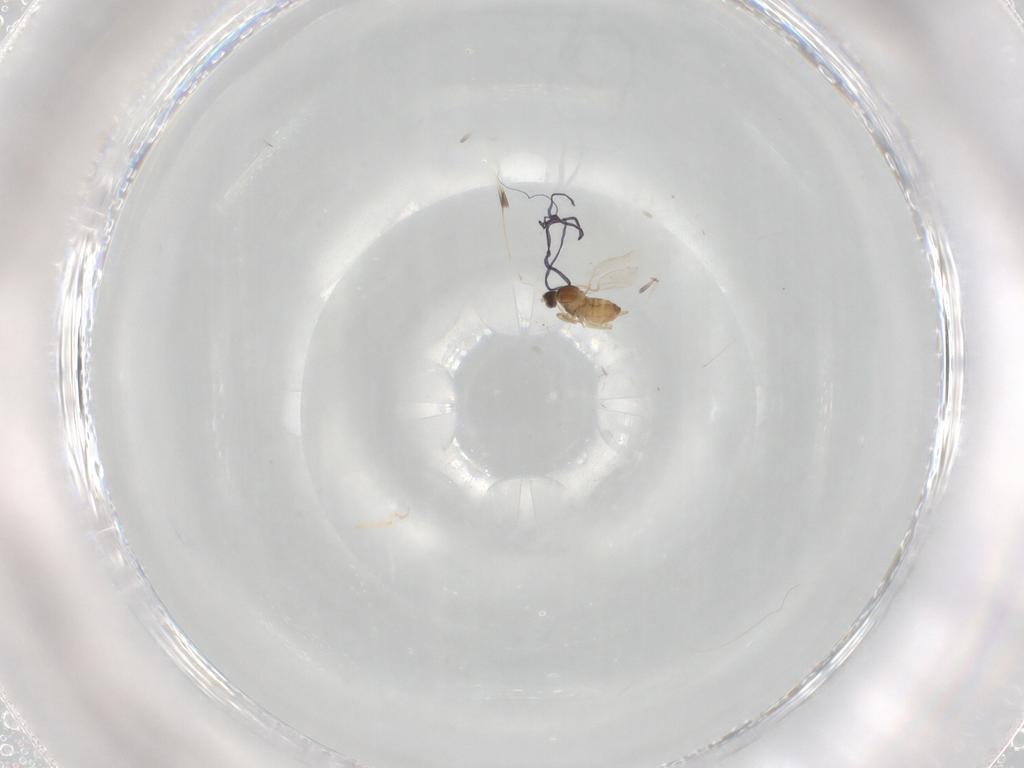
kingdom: Animalia
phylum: Arthropoda
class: Insecta
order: Diptera
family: Cecidomyiidae
